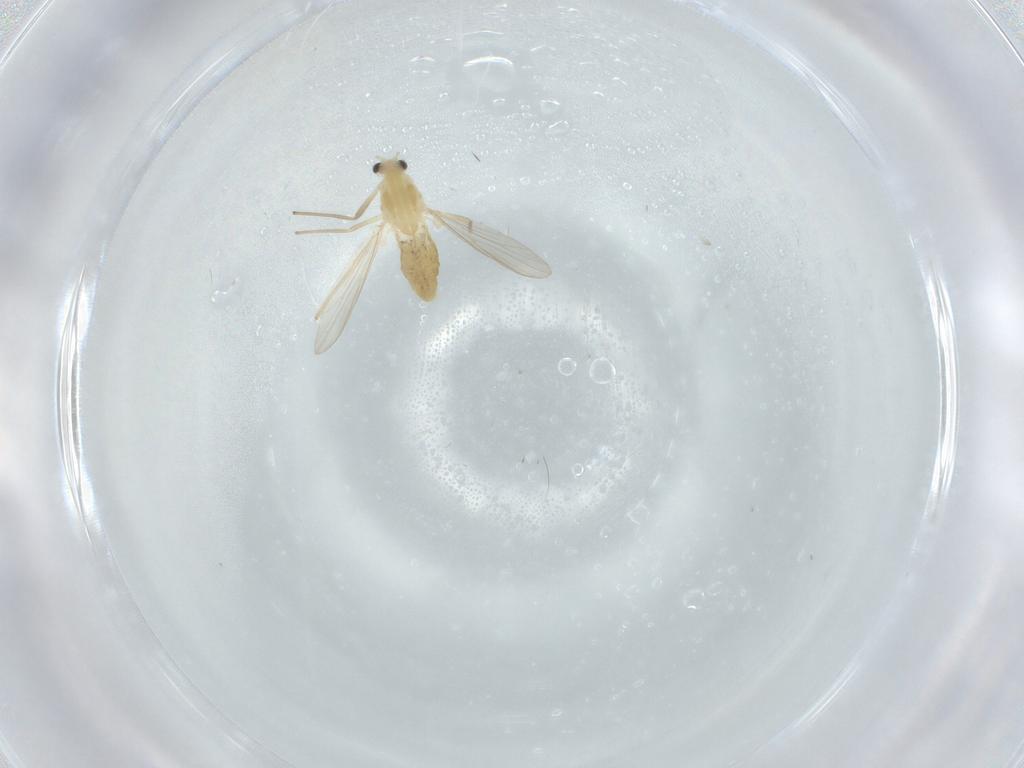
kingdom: Animalia
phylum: Arthropoda
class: Insecta
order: Diptera
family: Chironomidae
